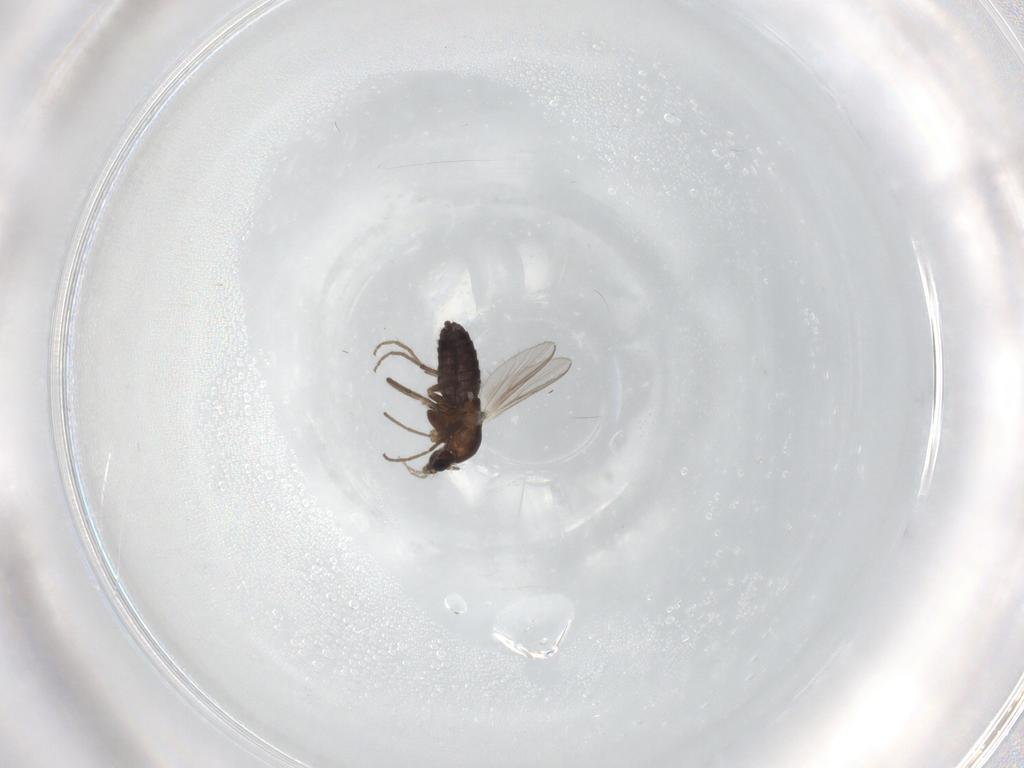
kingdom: Animalia
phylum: Arthropoda
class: Insecta
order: Diptera
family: Phoridae
